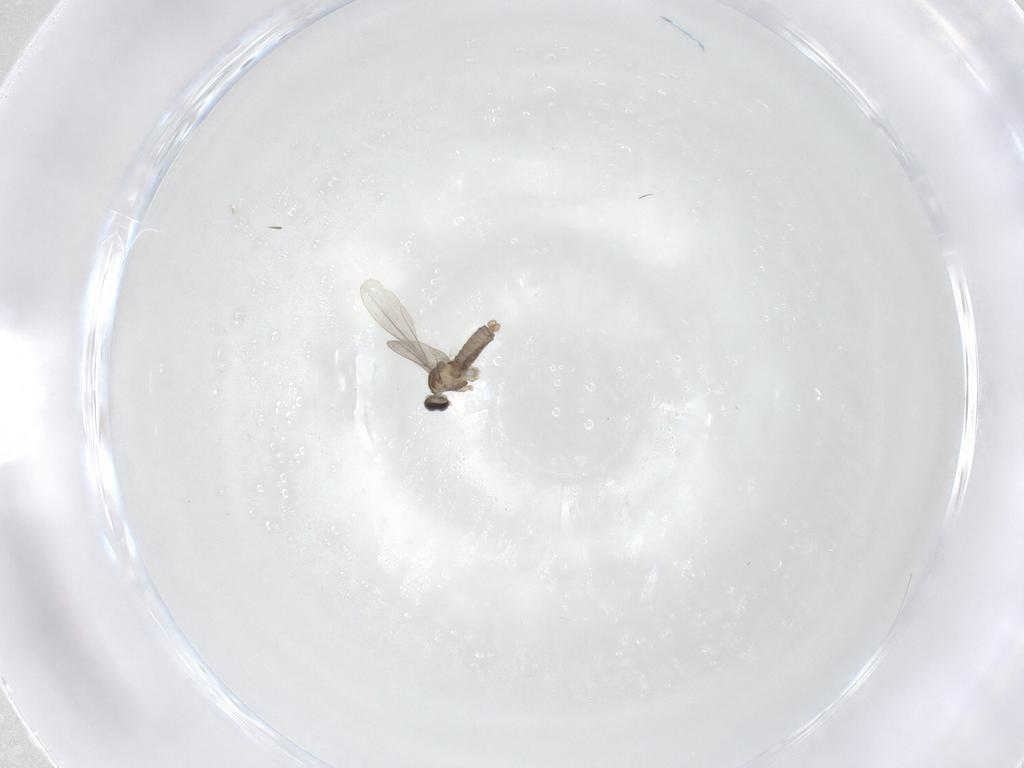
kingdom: Animalia
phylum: Arthropoda
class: Insecta
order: Diptera
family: Cecidomyiidae
